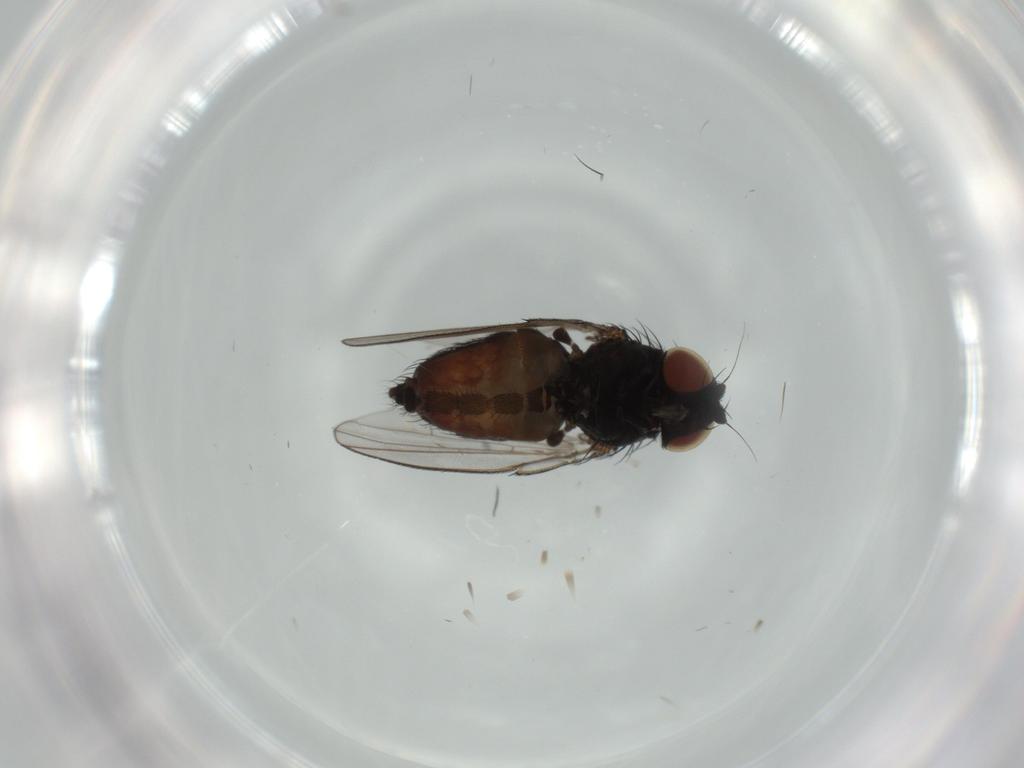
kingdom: Animalia
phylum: Arthropoda
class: Insecta
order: Diptera
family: Milichiidae
